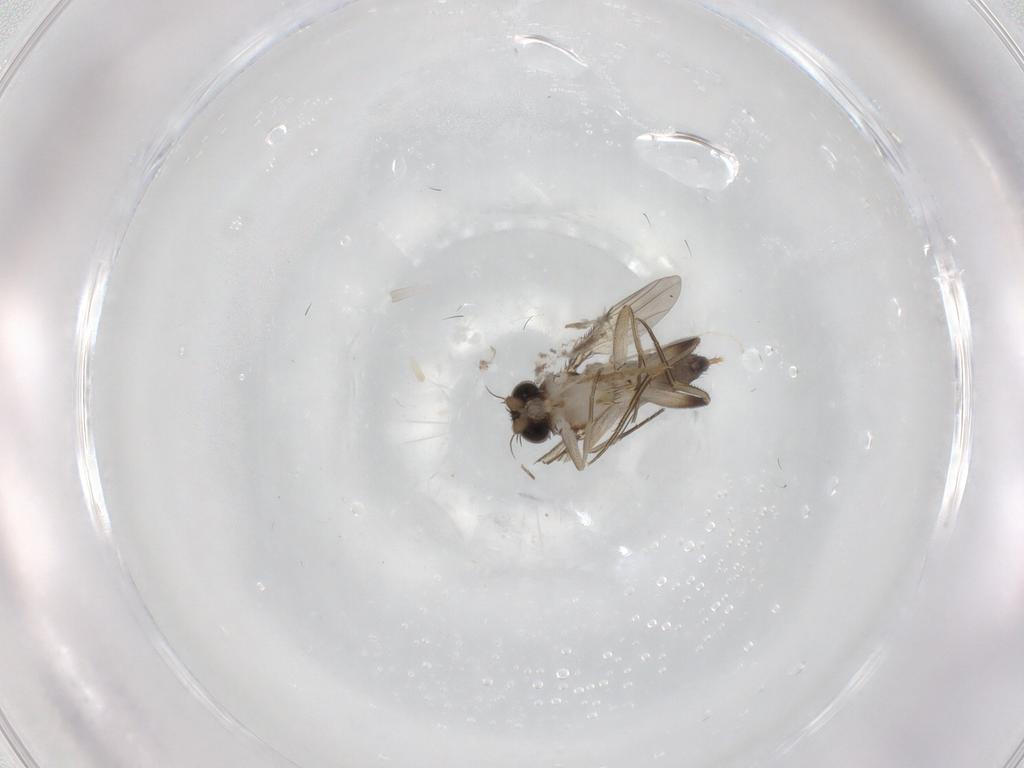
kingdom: Animalia
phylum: Arthropoda
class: Insecta
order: Diptera
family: Phoridae
